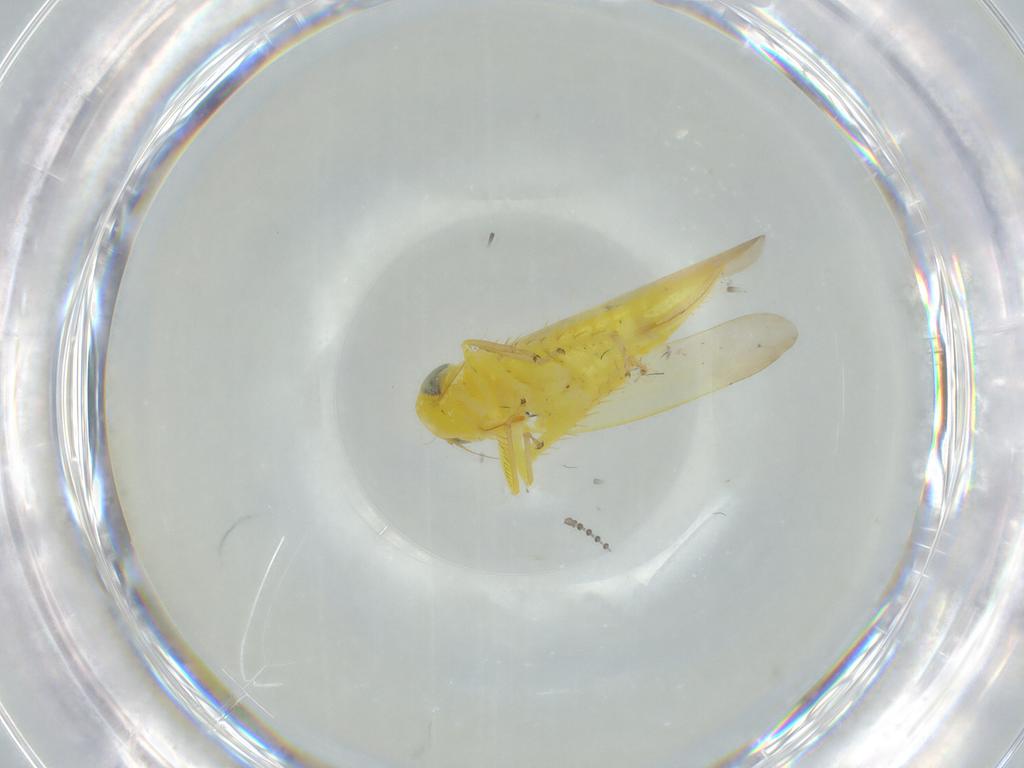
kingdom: Animalia
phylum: Arthropoda
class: Insecta
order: Hemiptera
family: Cicadellidae
